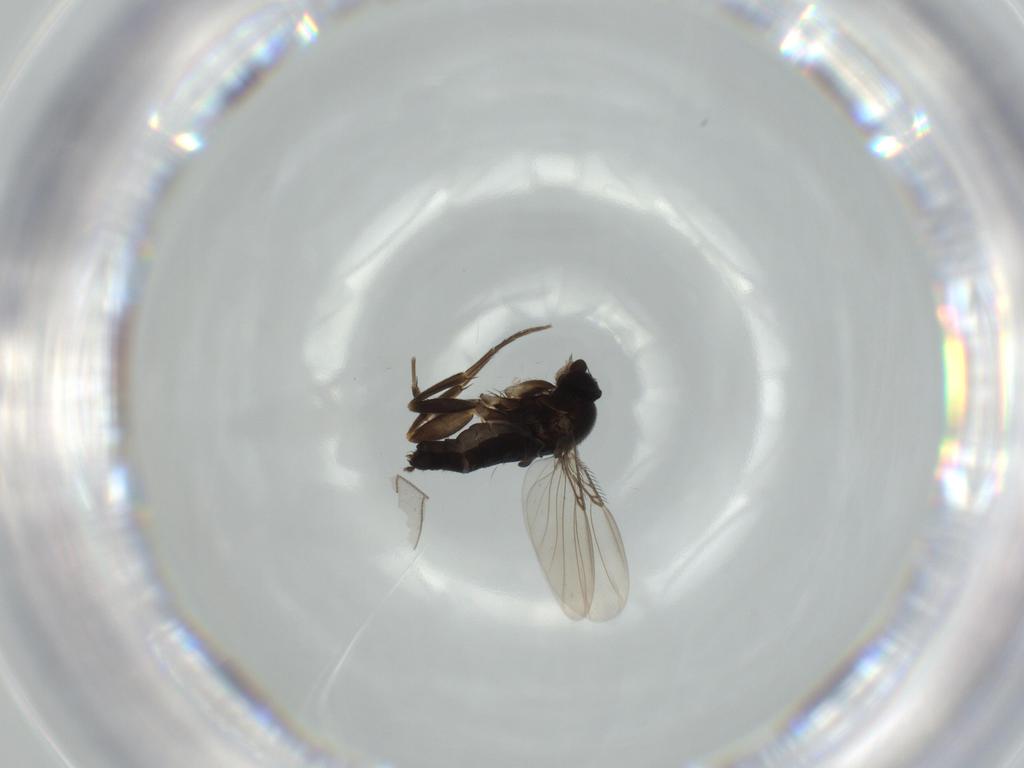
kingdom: Animalia
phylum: Arthropoda
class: Insecta
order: Diptera
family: Phoridae
